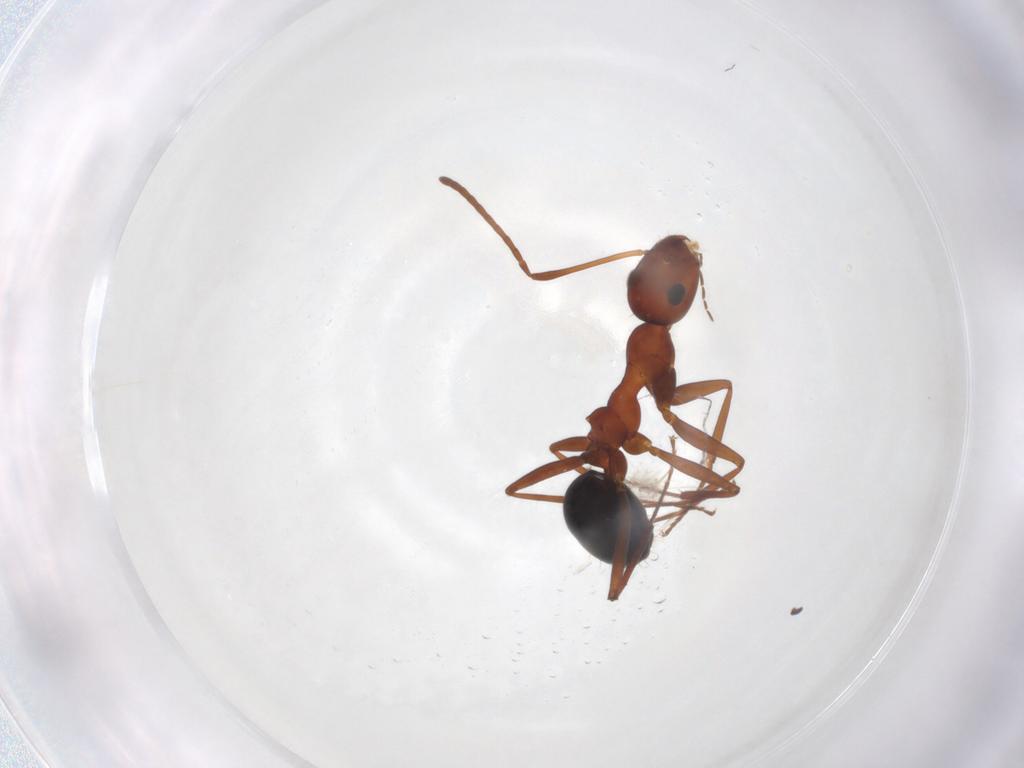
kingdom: Animalia
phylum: Arthropoda
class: Insecta
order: Hymenoptera
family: Formicidae
